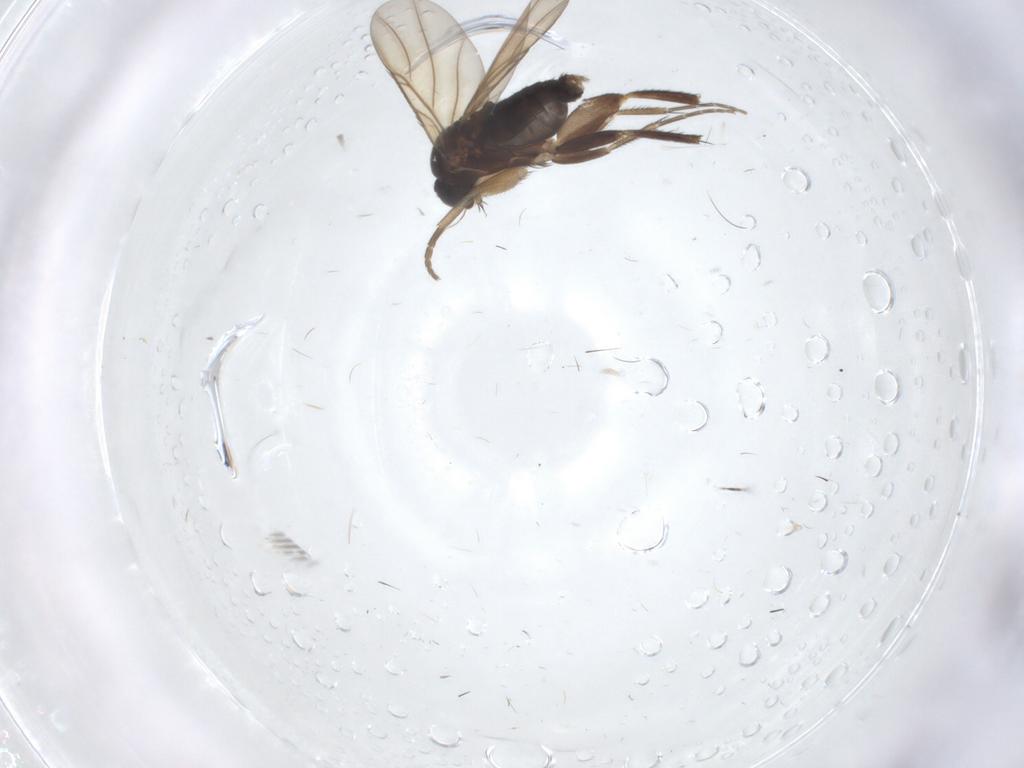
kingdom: Animalia
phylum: Arthropoda
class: Insecta
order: Diptera
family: Phoridae
